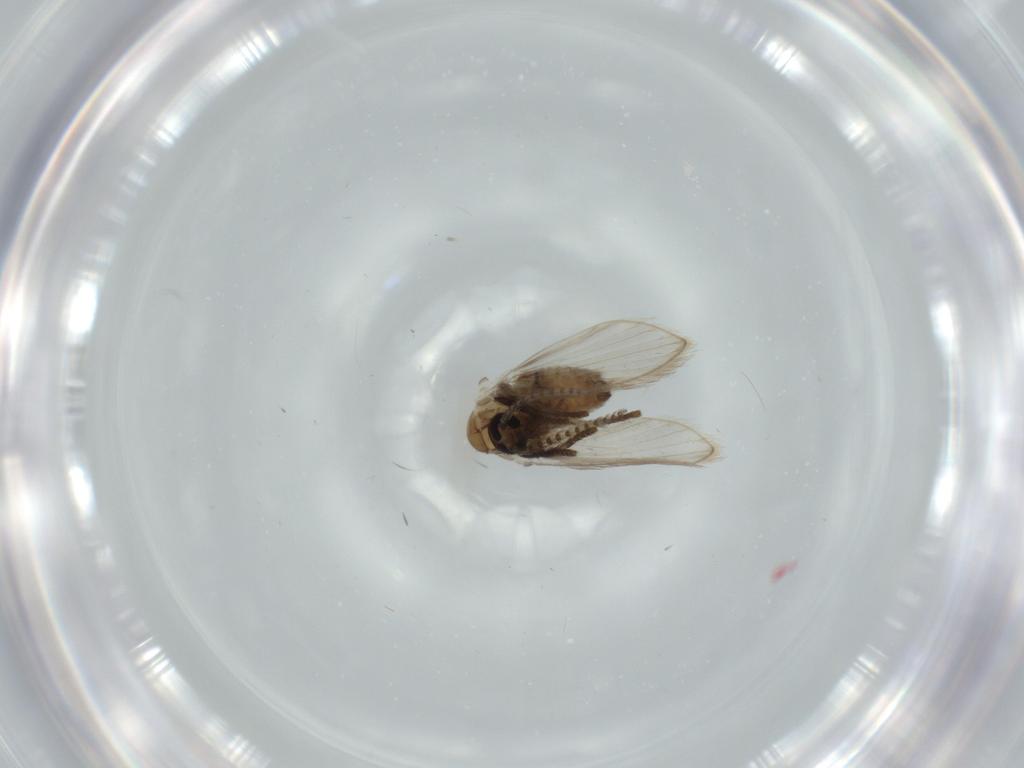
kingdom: Animalia
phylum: Arthropoda
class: Insecta
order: Diptera
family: Psychodidae
